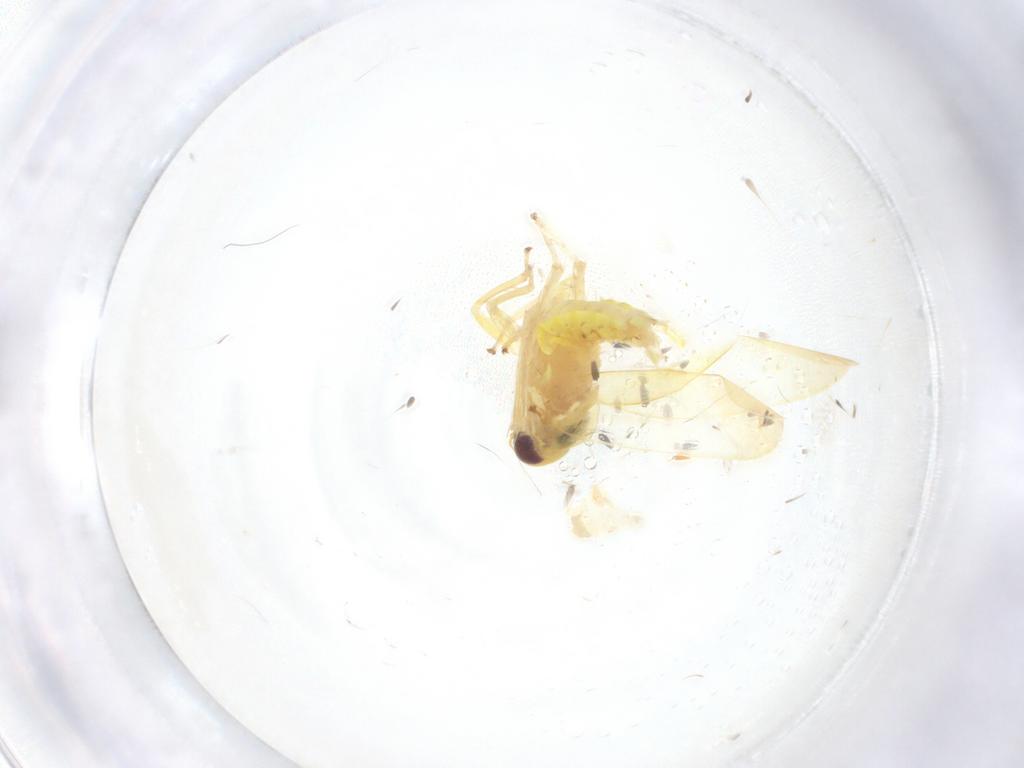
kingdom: Animalia
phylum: Arthropoda
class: Insecta
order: Hemiptera
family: Cicadellidae
